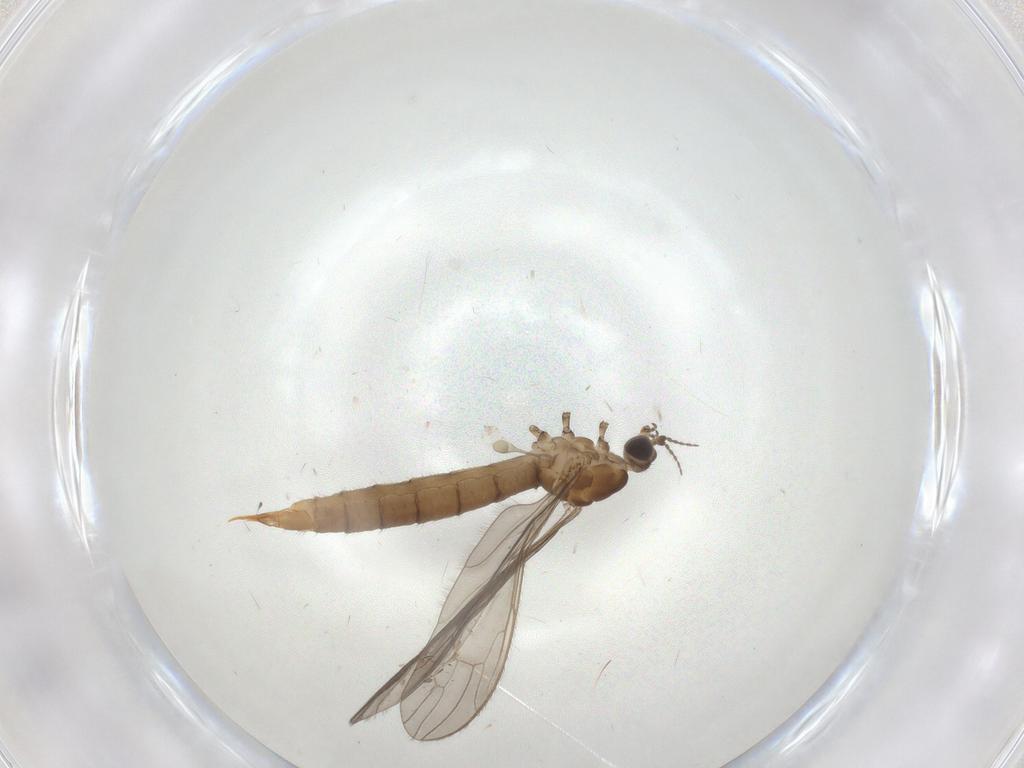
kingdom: Animalia
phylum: Arthropoda
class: Insecta
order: Diptera
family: Limoniidae
